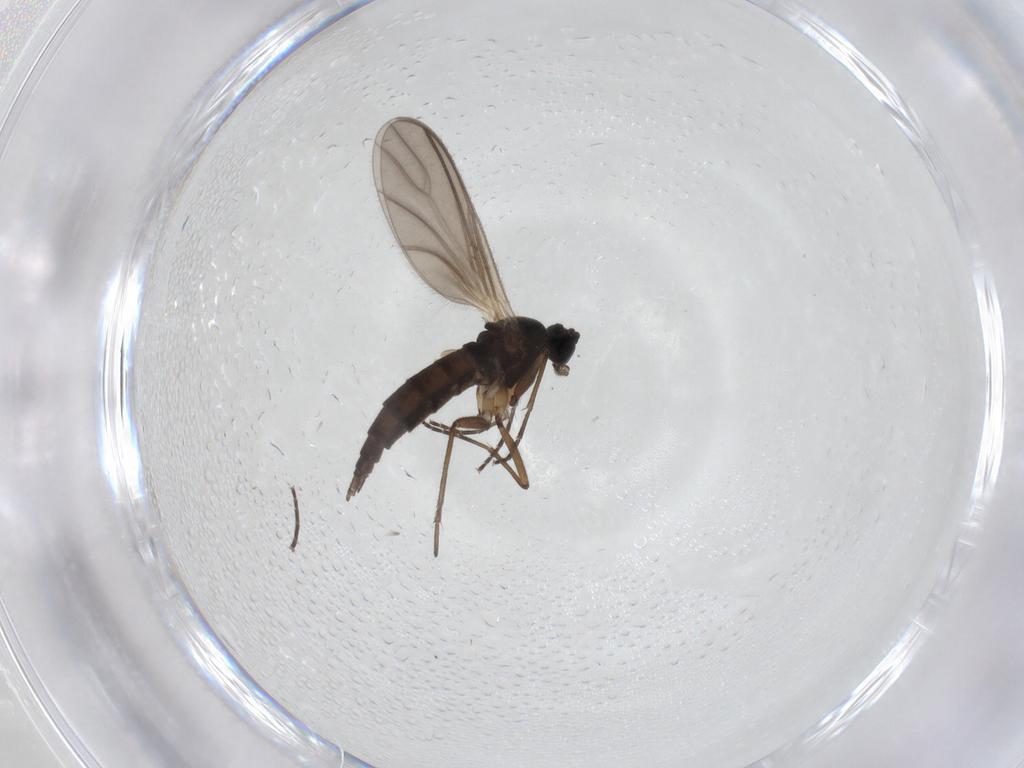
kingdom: Animalia
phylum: Arthropoda
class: Insecta
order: Diptera
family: Sciaridae
